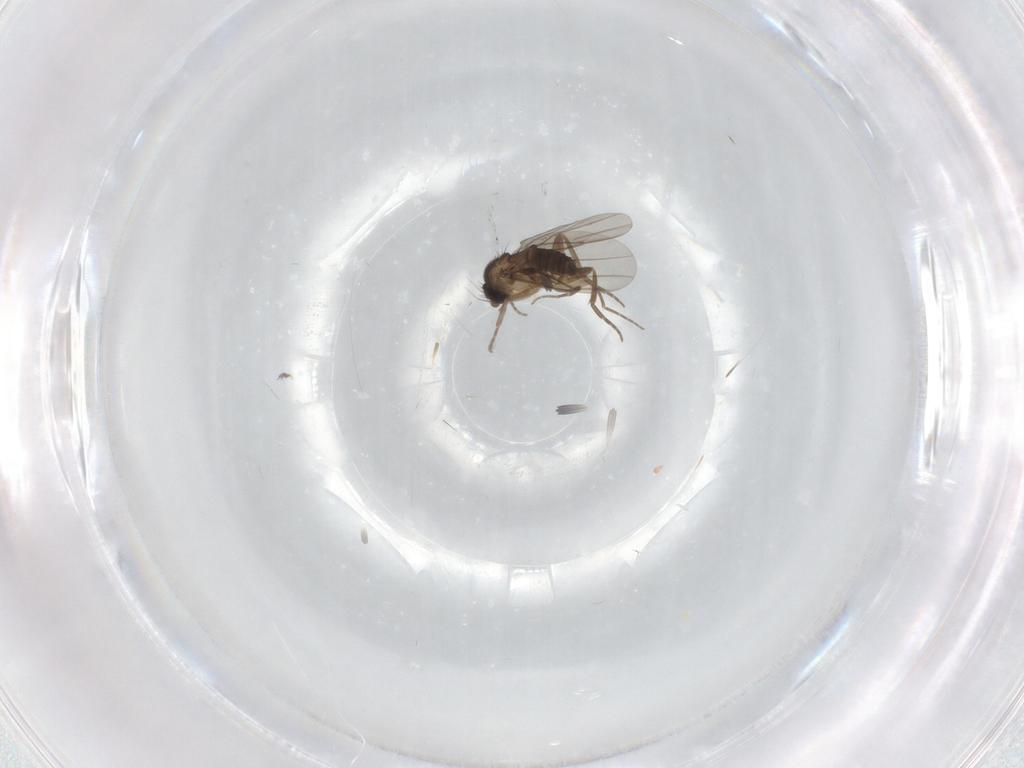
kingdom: Animalia
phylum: Arthropoda
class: Insecta
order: Diptera
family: Phoridae
